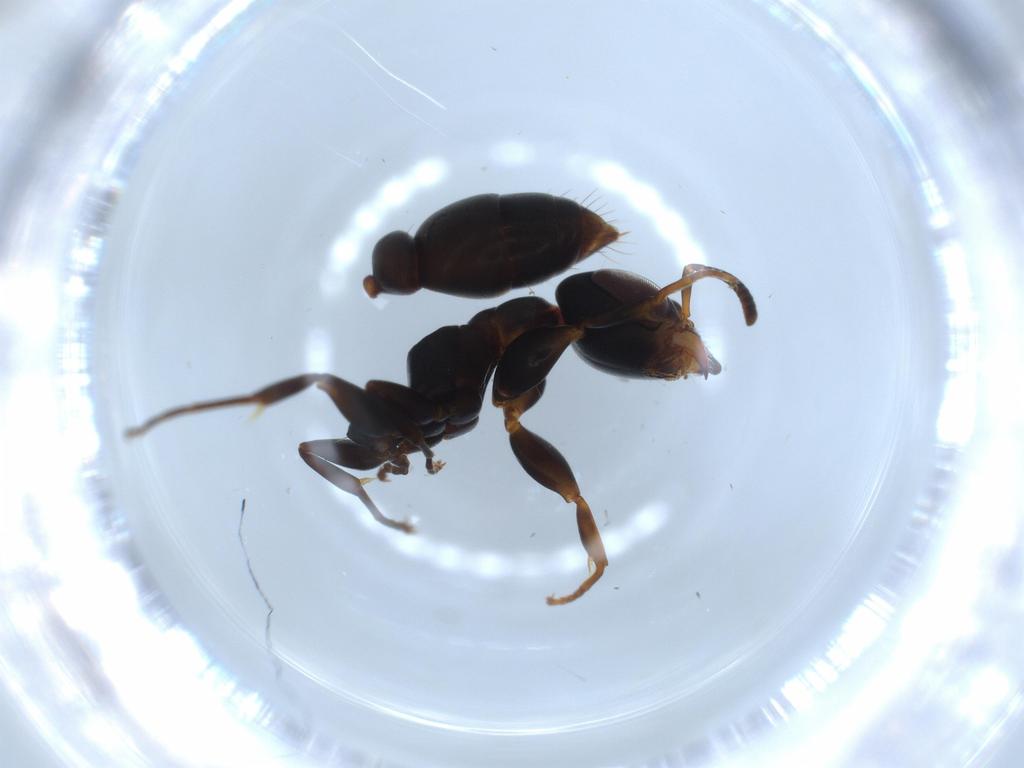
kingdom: Animalia
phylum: Arthropoda
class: Insecta
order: Hymenoptera
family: Formicidae
